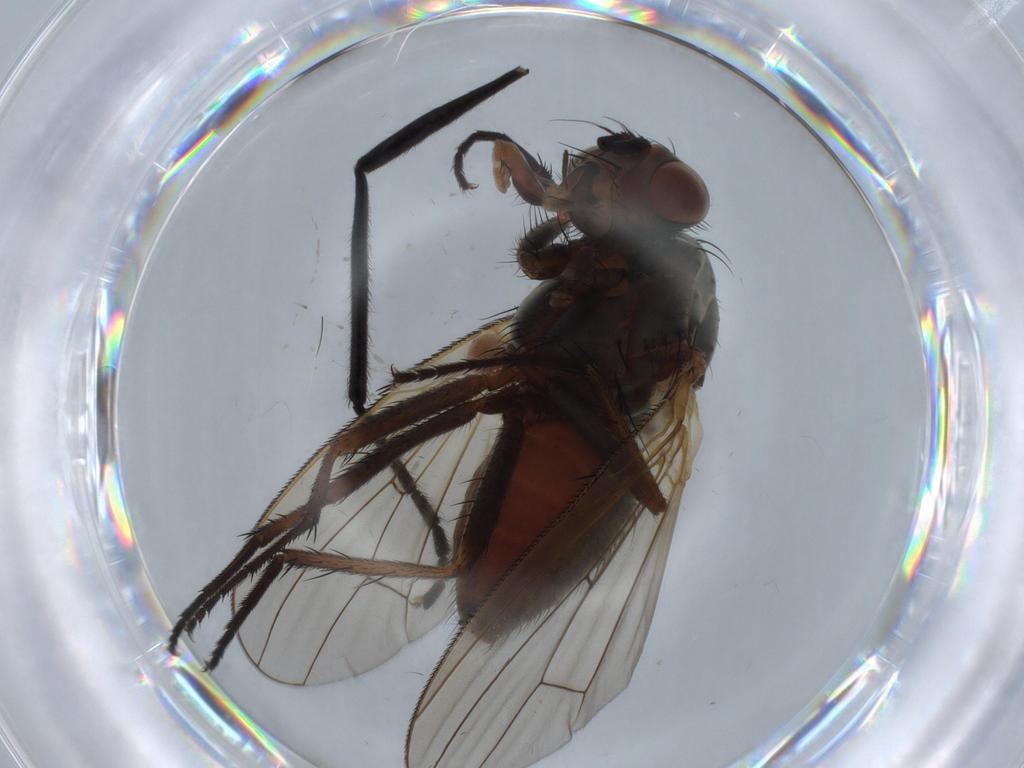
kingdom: Animalia
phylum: Arthropoda
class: Insecta
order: Diptera
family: Anthomyiidae
